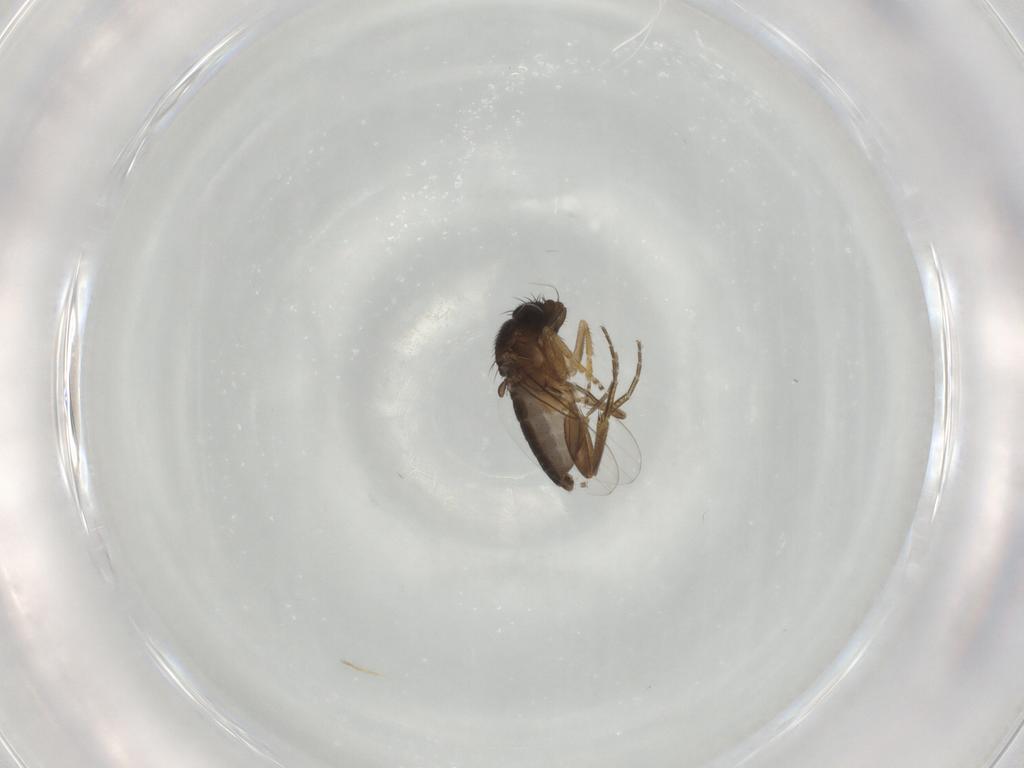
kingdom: Animalia
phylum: Arthropoda
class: Insecta
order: Diptera
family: Phoridae
